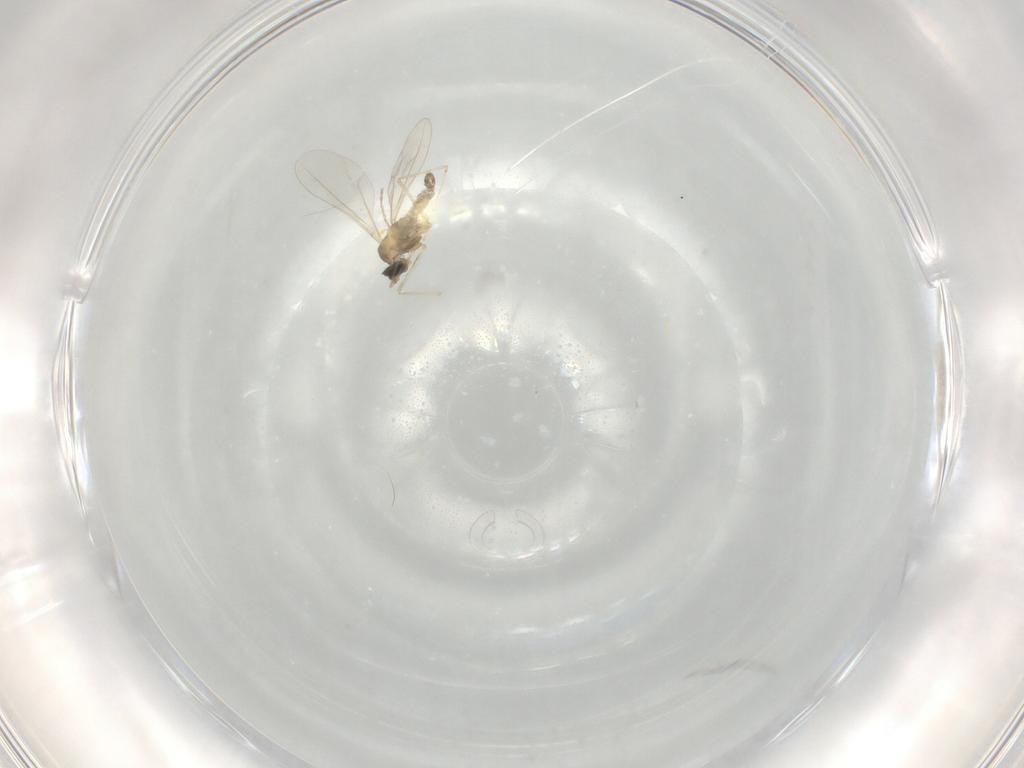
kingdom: Animalia
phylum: Arthropoda
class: Insecta
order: Diptera
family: Cecidomyiidae
